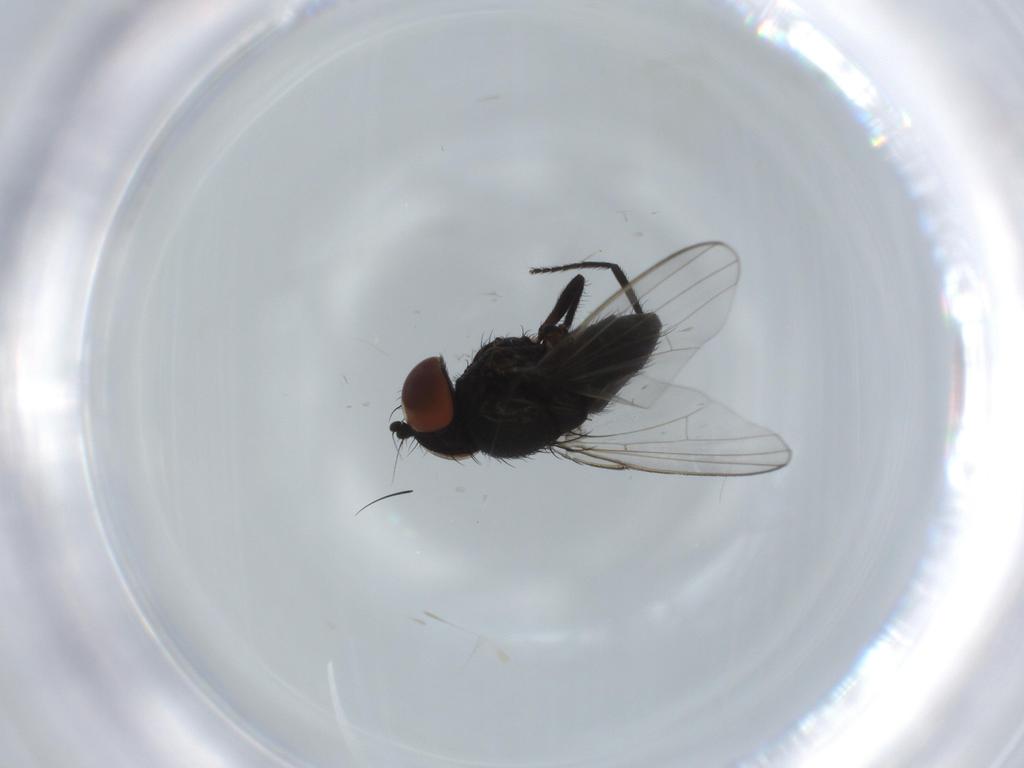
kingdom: Animalia
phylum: Arthropoda
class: Insecta
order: Diptera
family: Milichiidae
